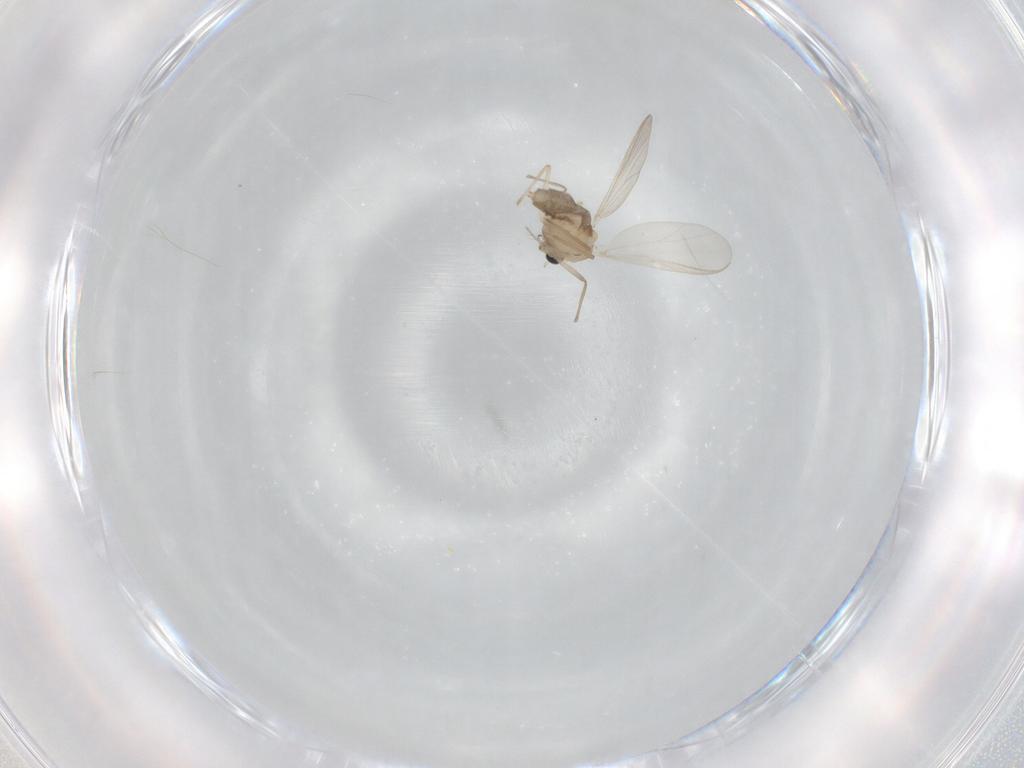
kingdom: Animalia
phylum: Arthropoda
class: Insecta
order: Diptera
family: Chironomidae
